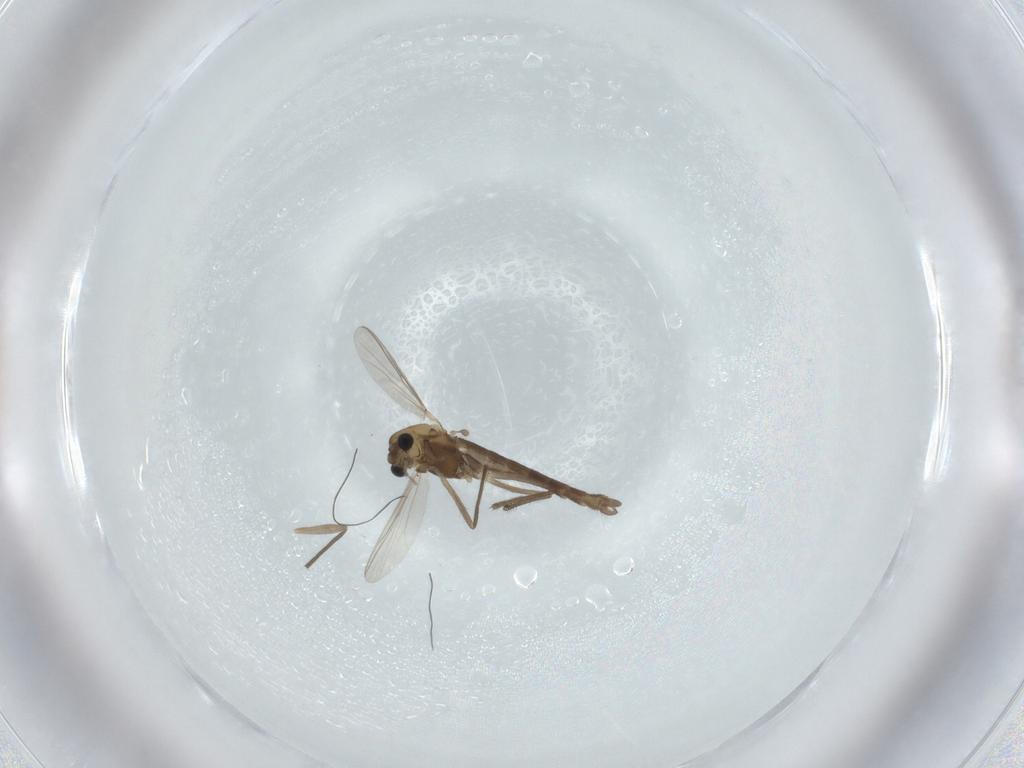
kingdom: Animalia
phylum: Arthropoda
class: Insecta
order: Diptera
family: Chironomidae
